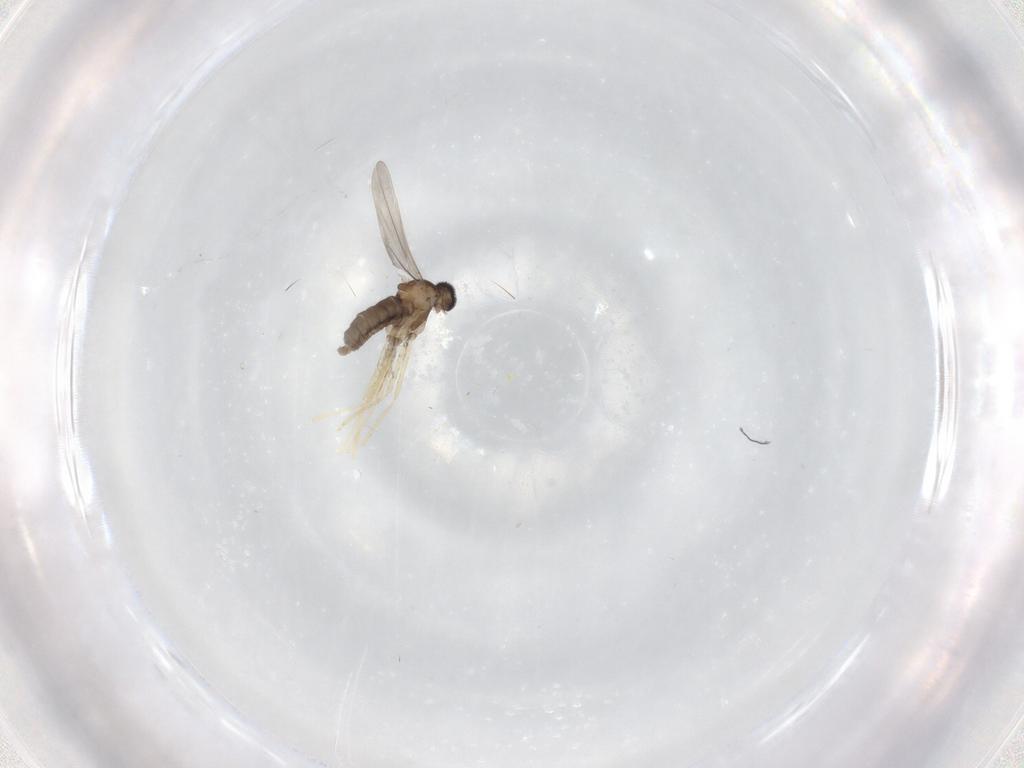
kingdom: Animalia
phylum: Arthropoda
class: Insecta
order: Diptera
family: Cecidomyiidae
